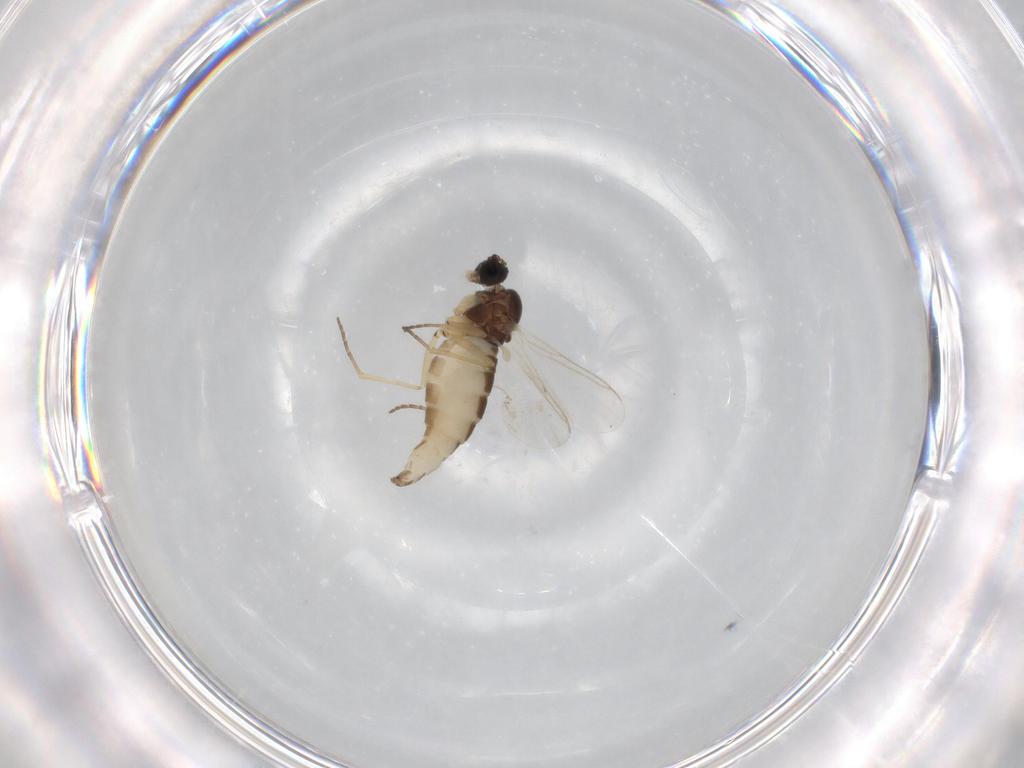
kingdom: Animalia
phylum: Arthropoda
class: Insecta
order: Diptera
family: Sciaridae
